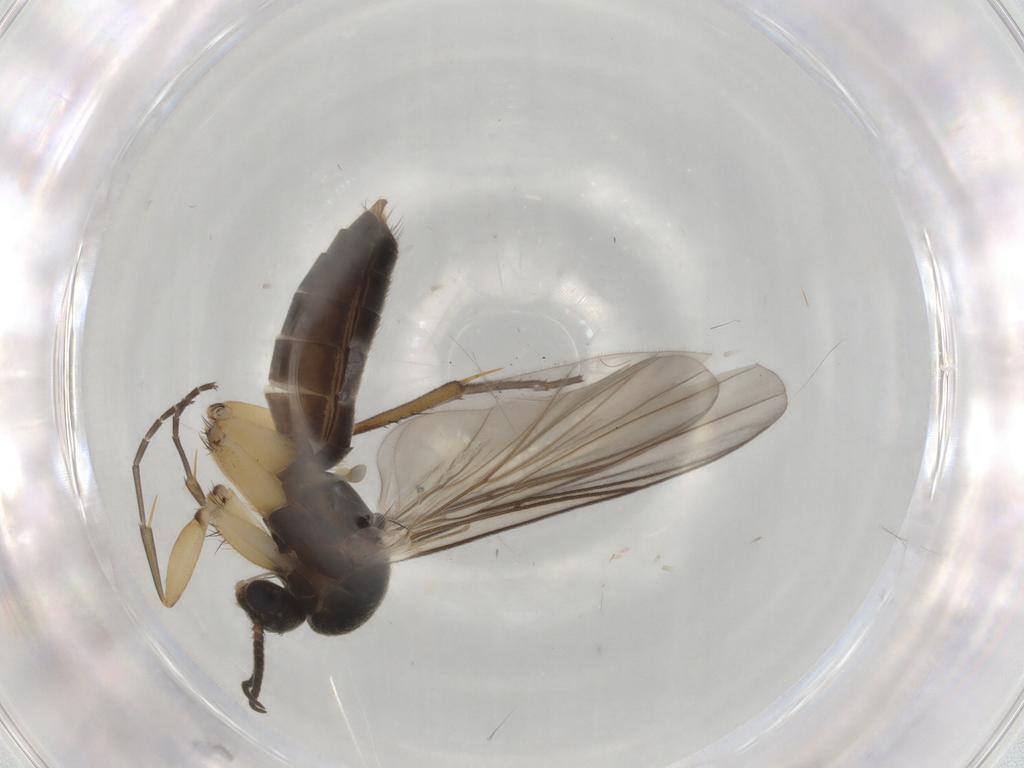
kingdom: Animalia
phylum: Arthropoda
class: Insecta
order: Diptera
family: Mycetophilidae
